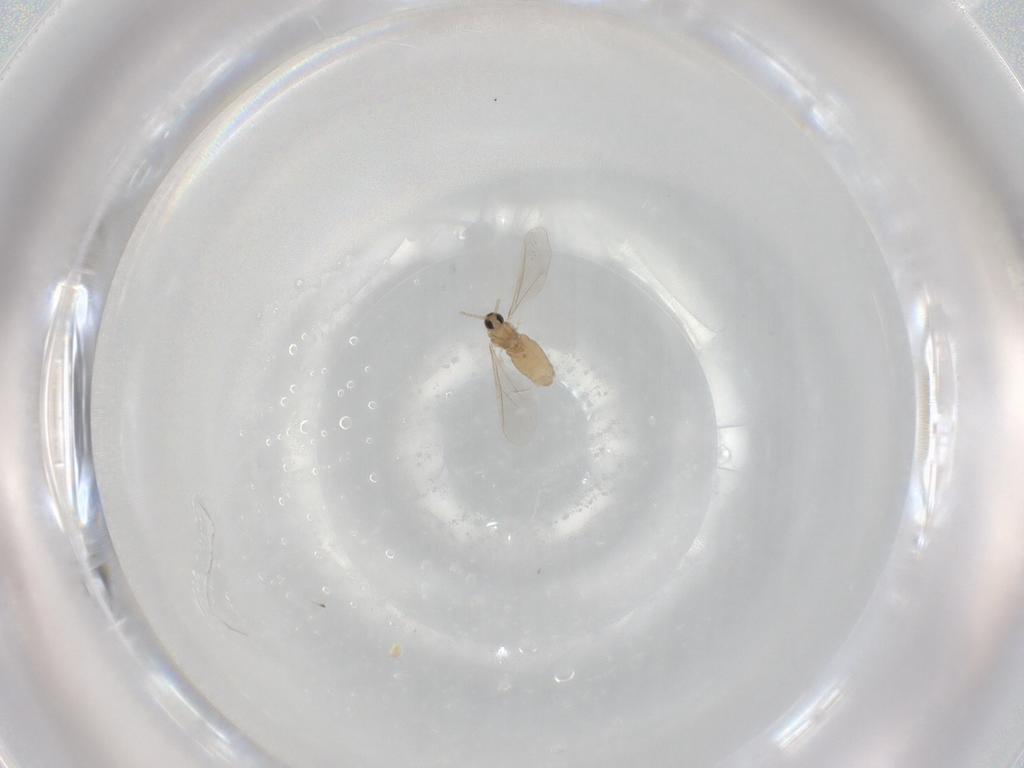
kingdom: Animalia
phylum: Arthropoda
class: Insecta
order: Diptera
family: Cecidomyiidae
